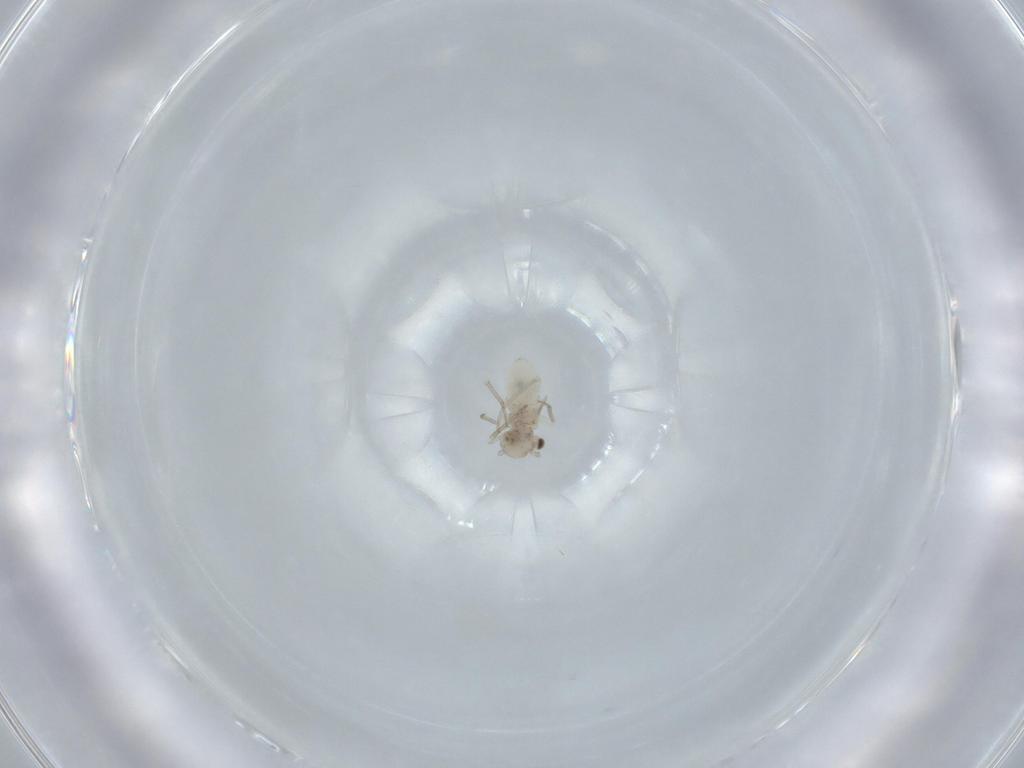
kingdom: Animalia
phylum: Arthropoda
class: Insecta
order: Psocodea
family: Lachesillidae
